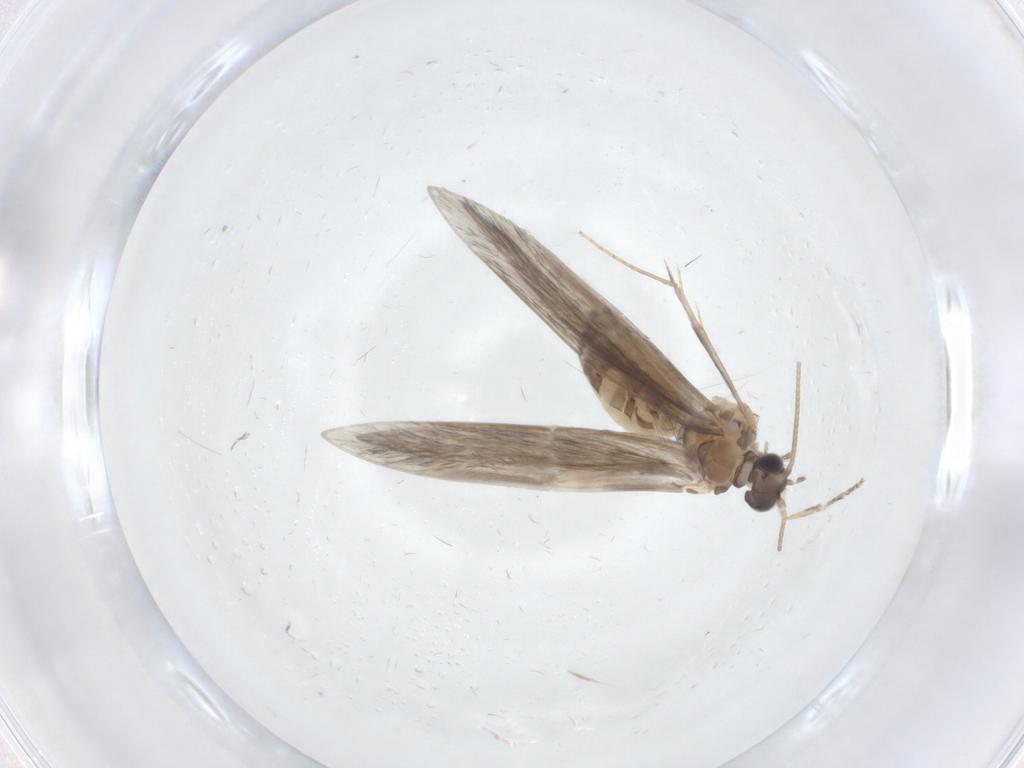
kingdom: Animalia
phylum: Arthropoda
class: Insecta
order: Trichoptera
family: Hydroptilidae
